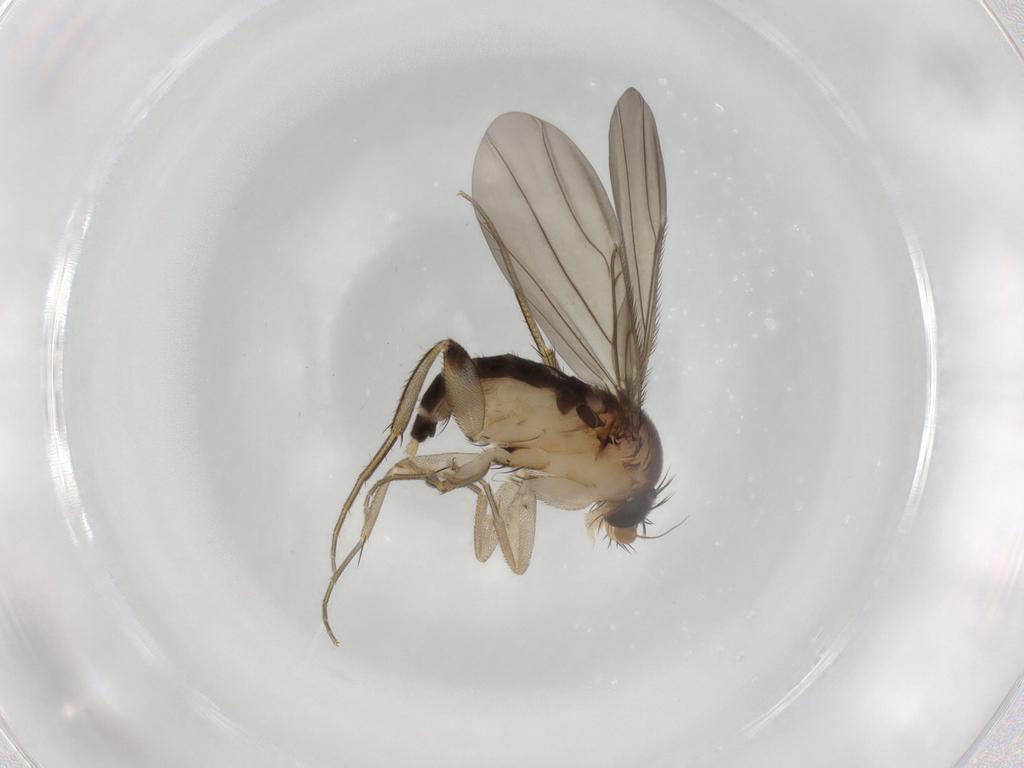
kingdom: Animalia
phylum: Arthropoda
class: Insecta
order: Diptera
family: Phoridae
